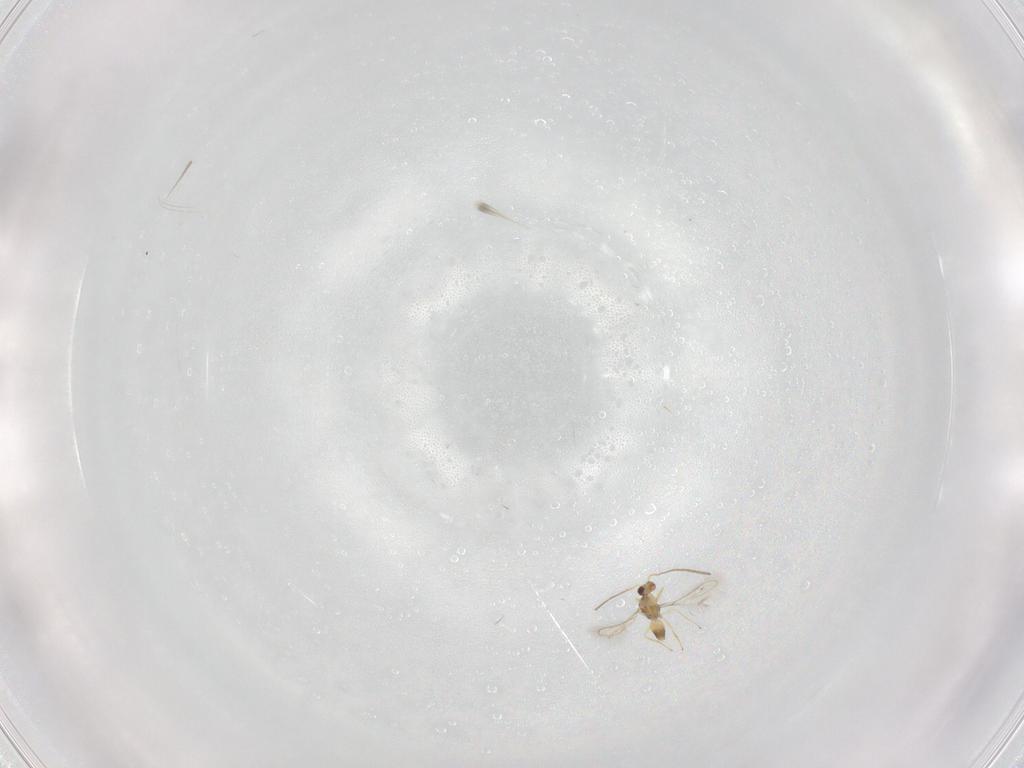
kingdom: Animalia
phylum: Arthropoda
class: Insecta
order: Hymenoptera
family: Mymaridae
